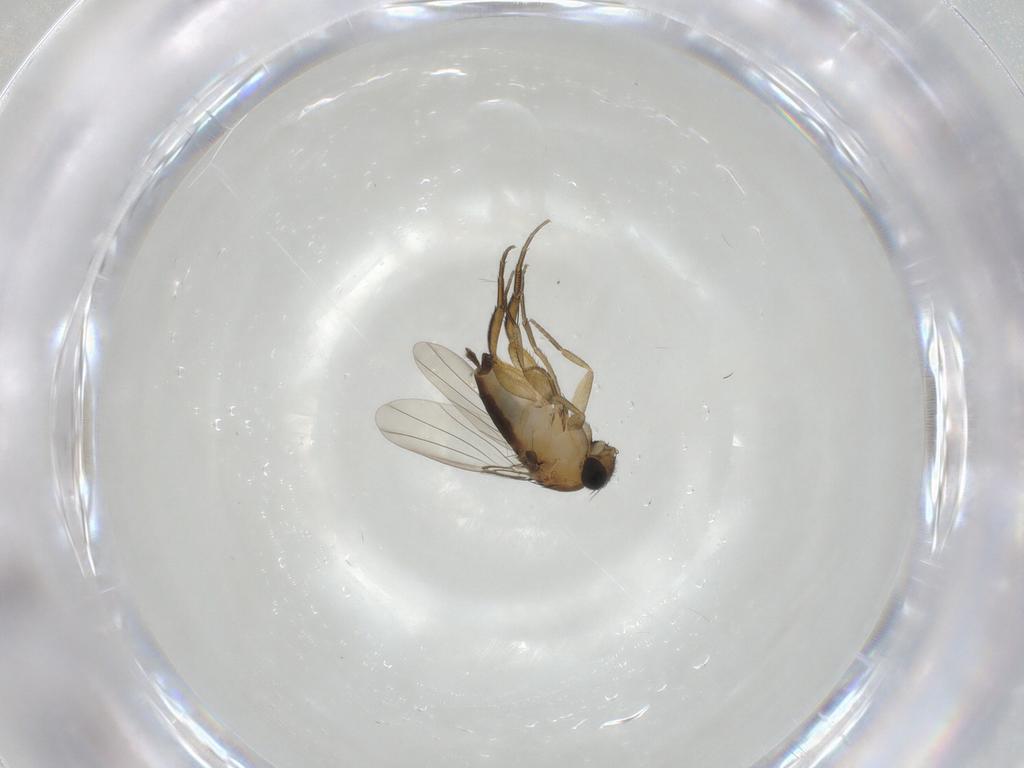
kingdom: Animalia
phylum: Arthropoda
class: Insecta
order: Diptera
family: Phoridae
